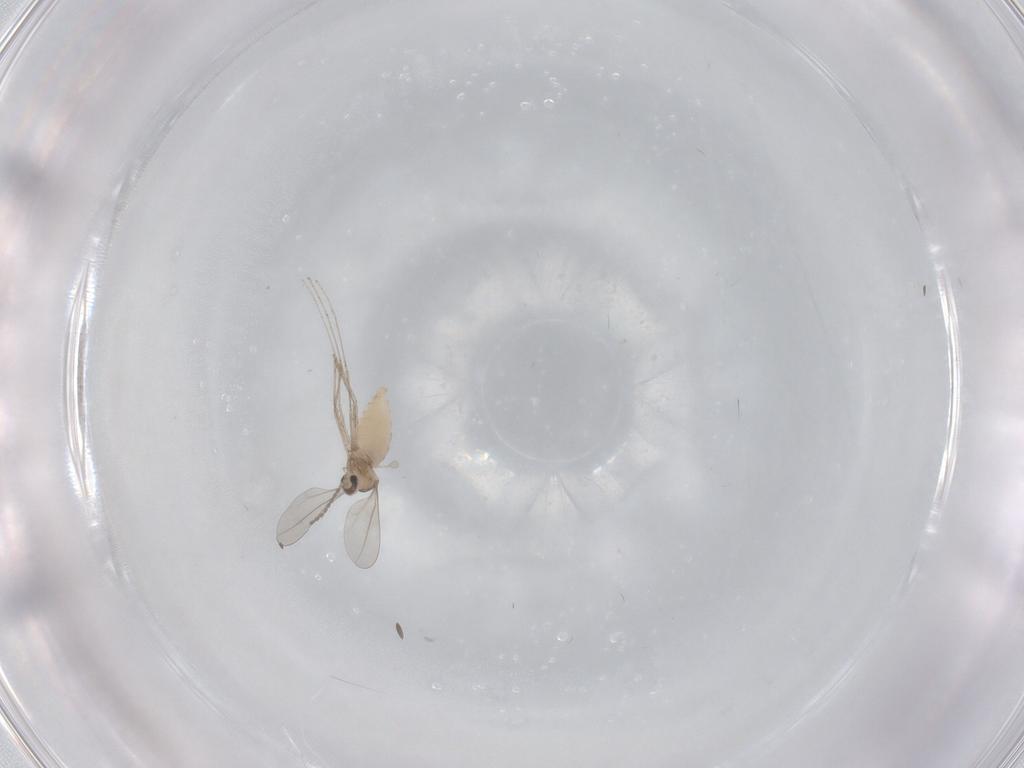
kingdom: Animalia
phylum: Arthropoda
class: Insecta
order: Diptera
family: Cecidomyiidae
